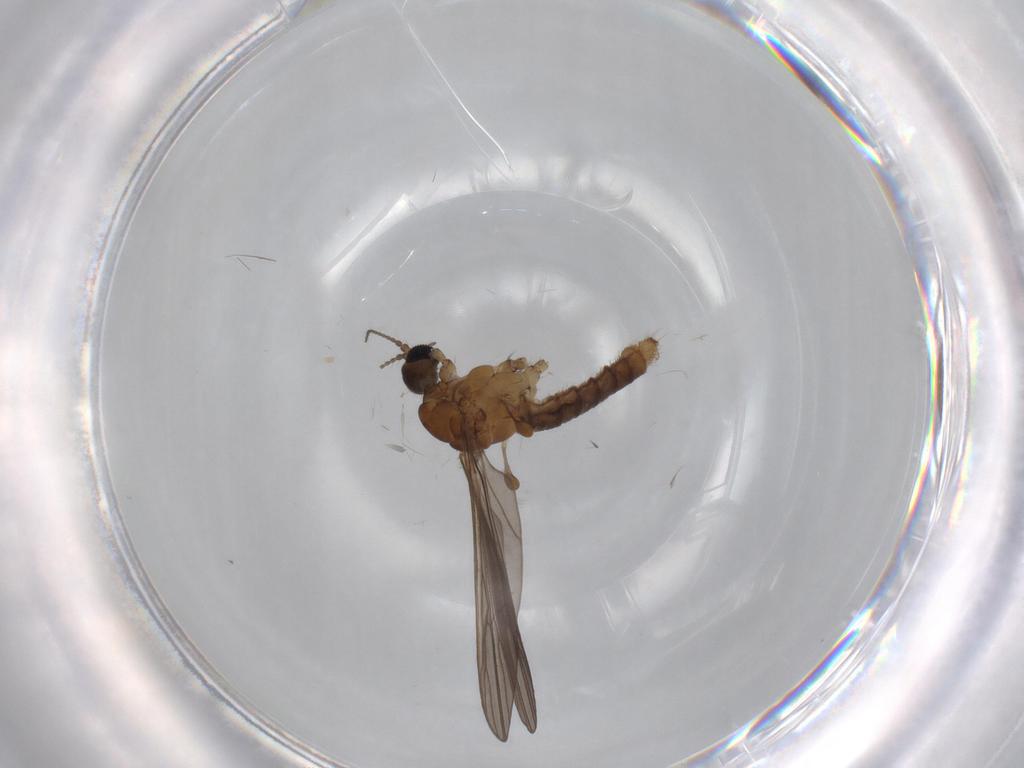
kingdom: Animalia
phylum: Arthropoda
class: Insecta
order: Diptera
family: Limoniidae
